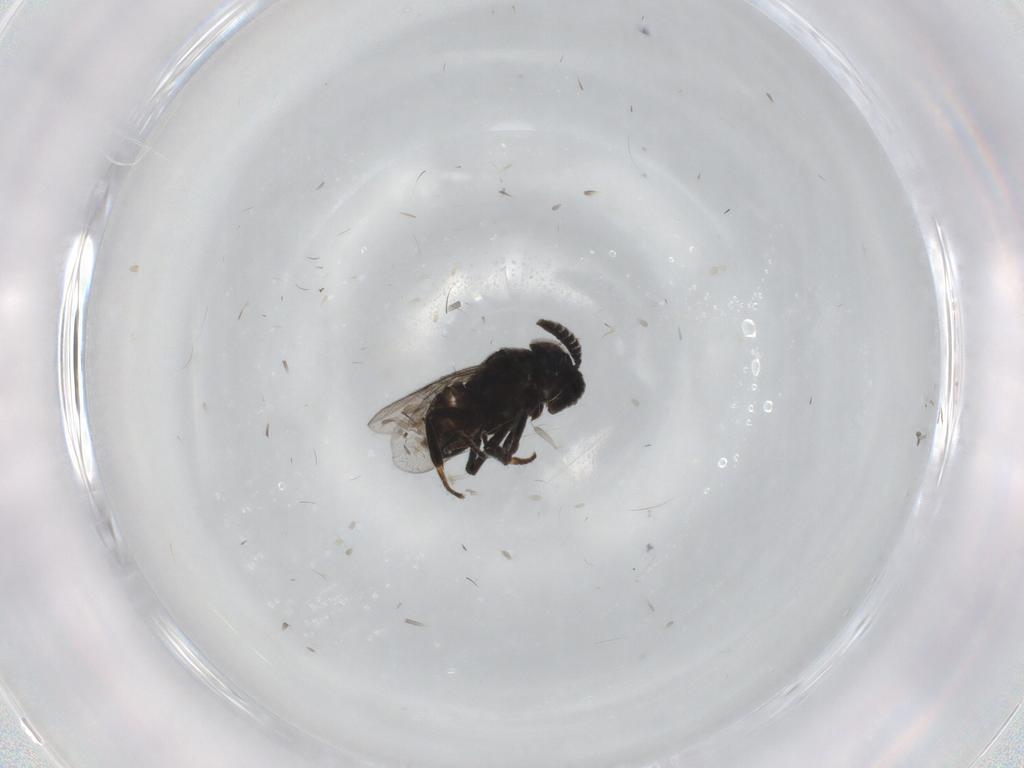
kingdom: Animalia
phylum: Arthropoda
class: Insecta
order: Hymenoptera
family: Encyrtidae
